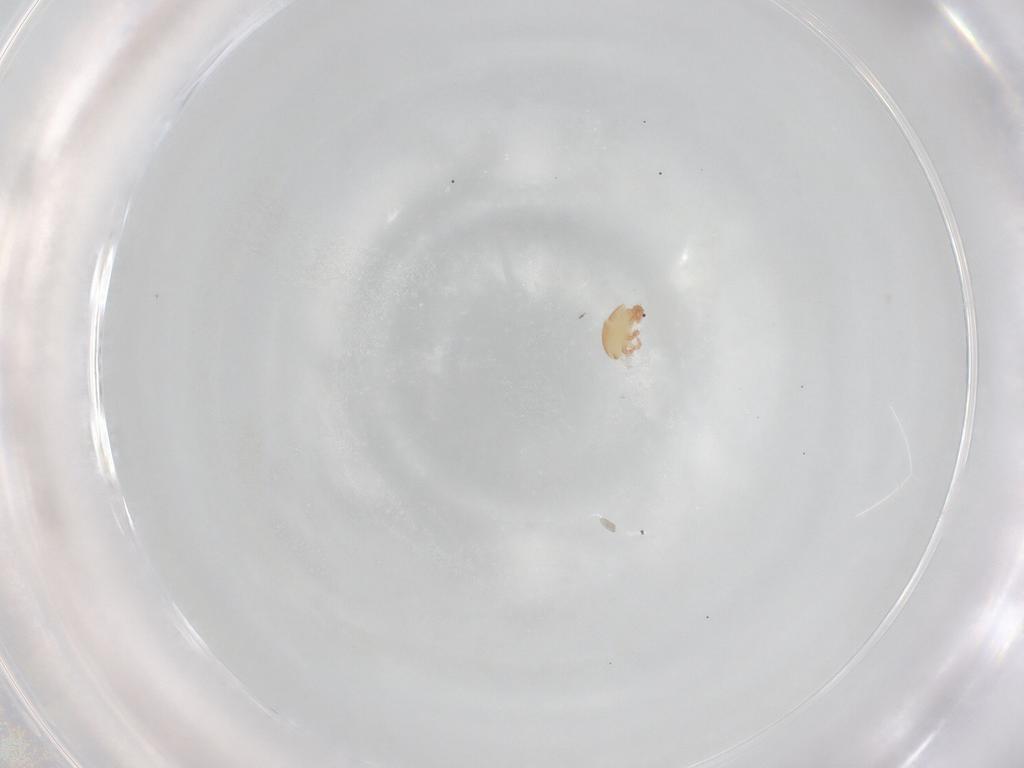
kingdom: Animalia
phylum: Arthropoda
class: Arachnida
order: Trombidiformes
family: Stigmaeidae
